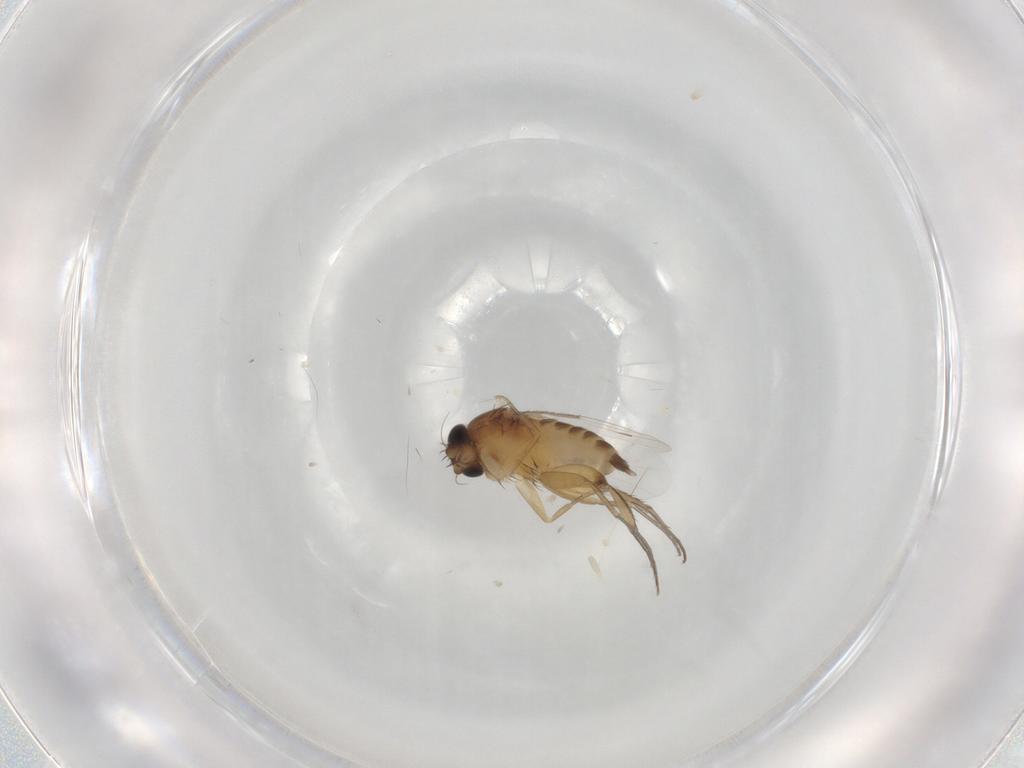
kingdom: Animalia
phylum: Arthropoda
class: Insecta
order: Diptera
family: Phoridae
